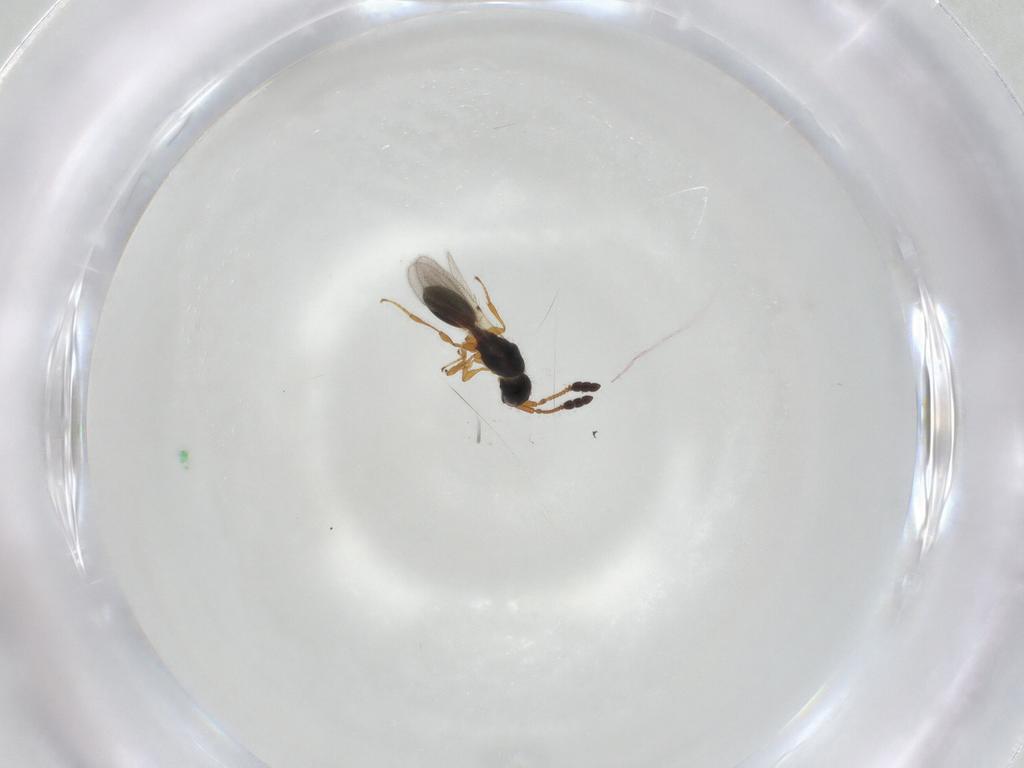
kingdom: Animalia
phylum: Arthropoda
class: Insecta
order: Hymenoptera
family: Diapriidae
